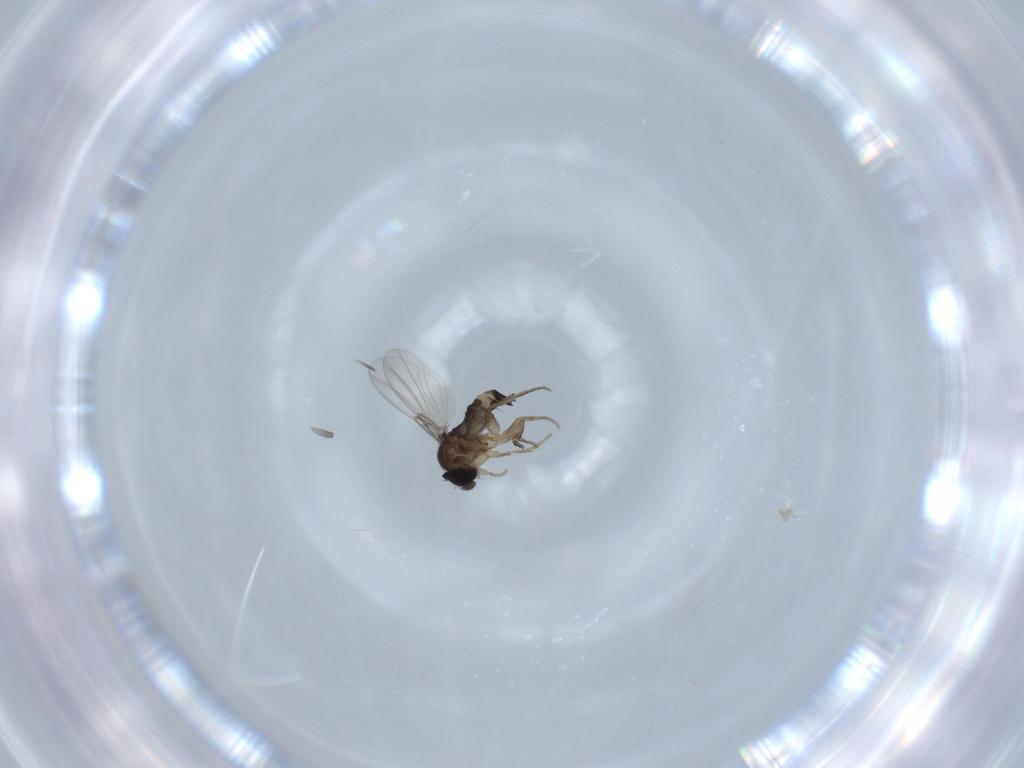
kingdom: Animalia
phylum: Arthropoda
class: Insecta
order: Diptera
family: Phoridae
